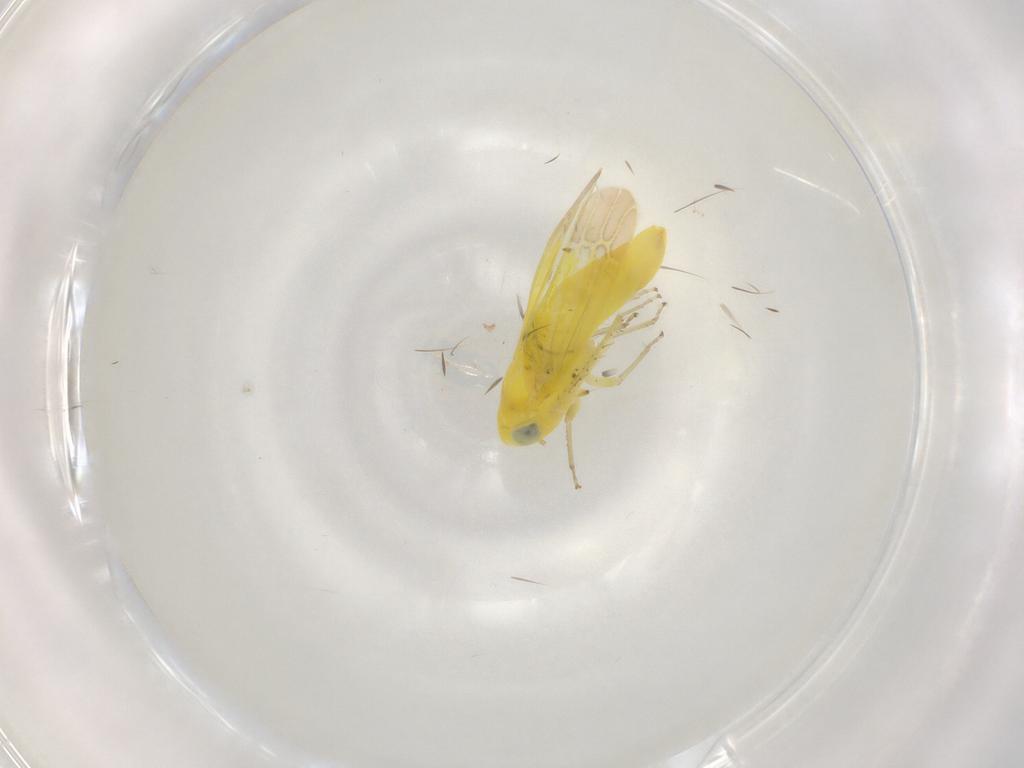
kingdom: Animalia
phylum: Arthropoda
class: Insecta
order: Hemiptera
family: Cicadellidae
